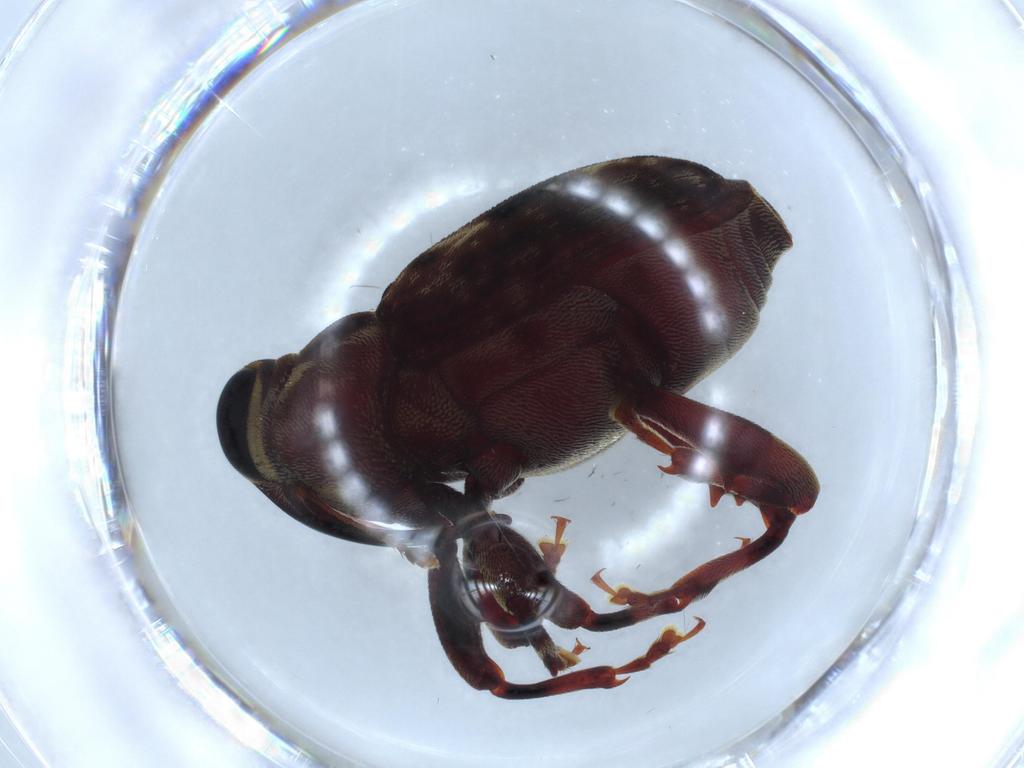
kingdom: Animalia
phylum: Arthropoda
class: Insecta
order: Coleoptera
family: Curculionidae
